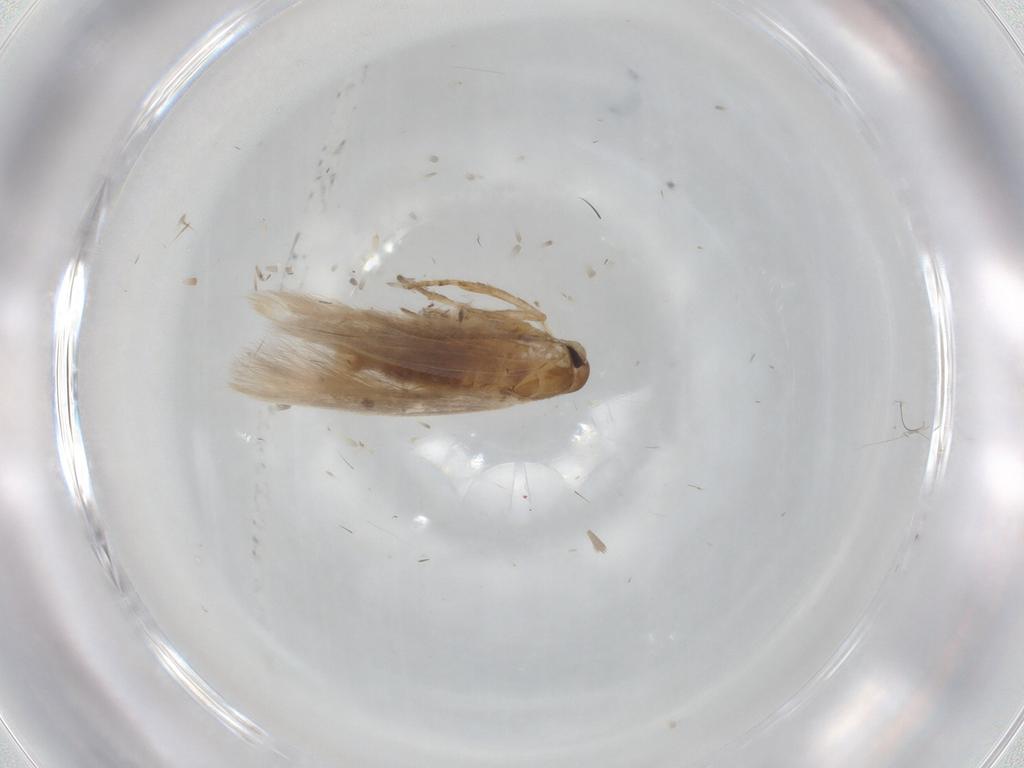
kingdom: Animalia
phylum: Arthropoda
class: Insecta
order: Lepidoptera
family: Cosmopterigidae
